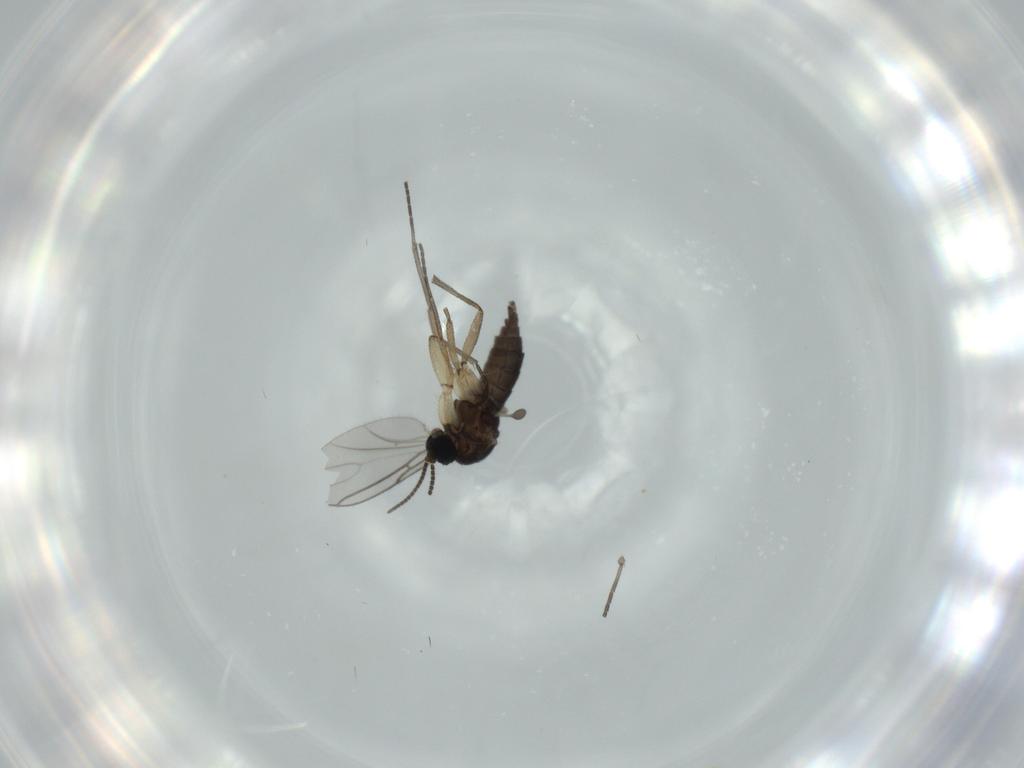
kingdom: Animalia
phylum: Arthropoda
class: Insecta
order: Diptera
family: Sciaridae
